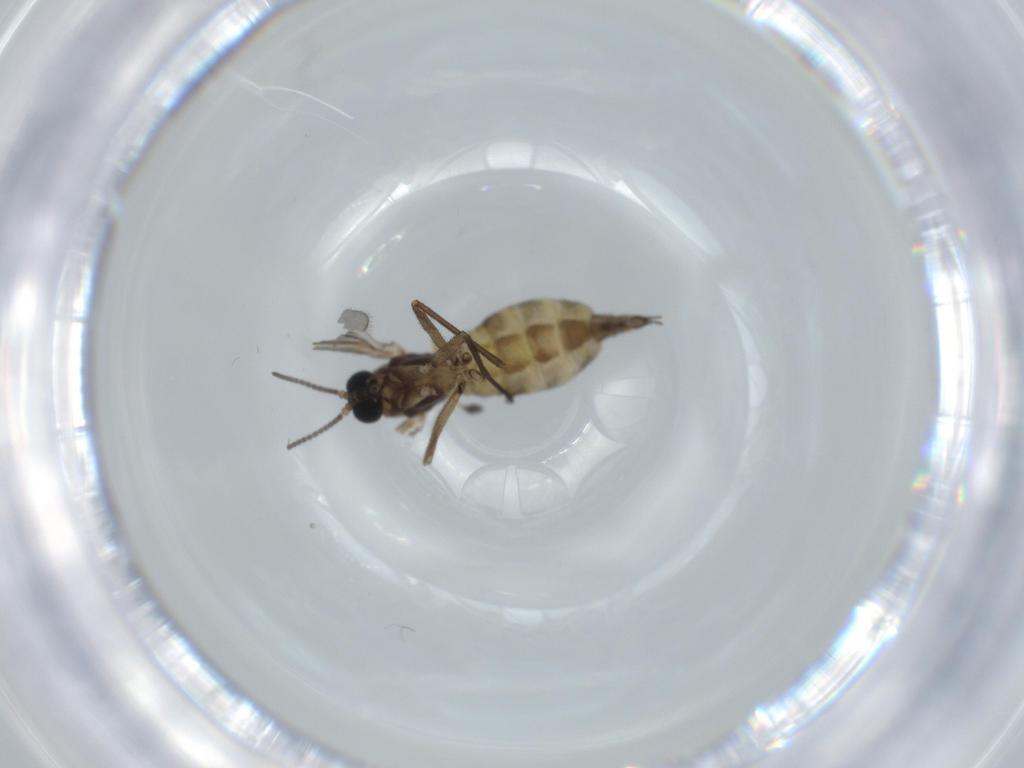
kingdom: Animalia
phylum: Arthropoda
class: Insecta
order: Diptera
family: Sciaridae
